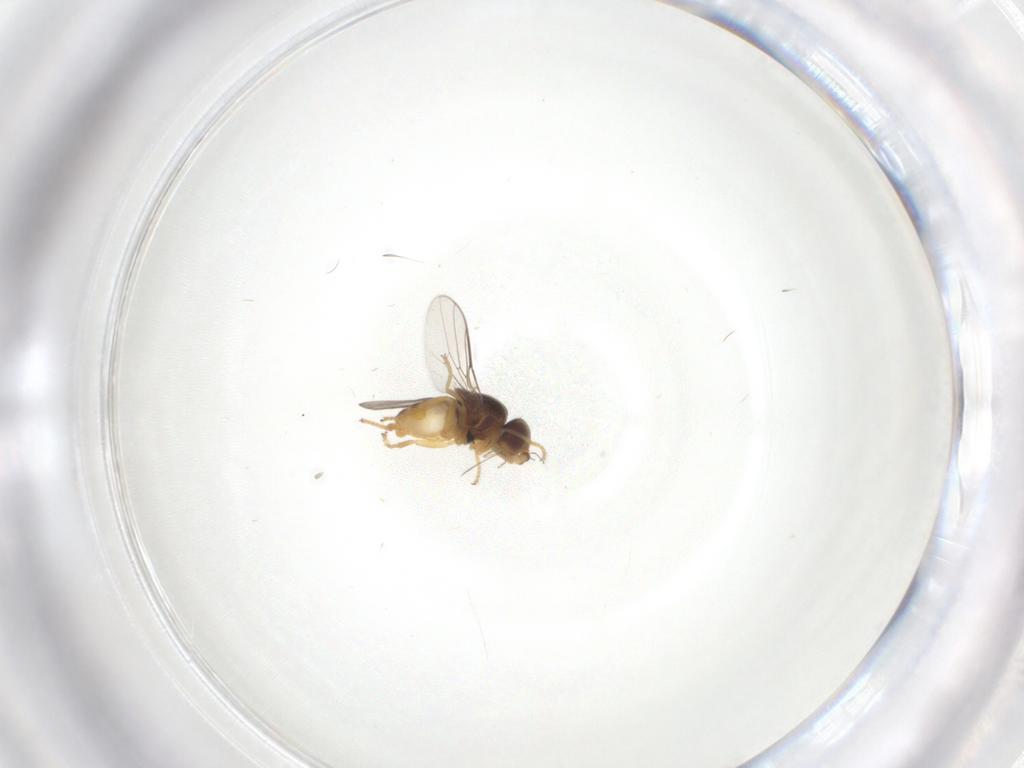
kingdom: Animalia
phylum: Arthropoda
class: Insecta
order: Diptera
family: Chloropidae
